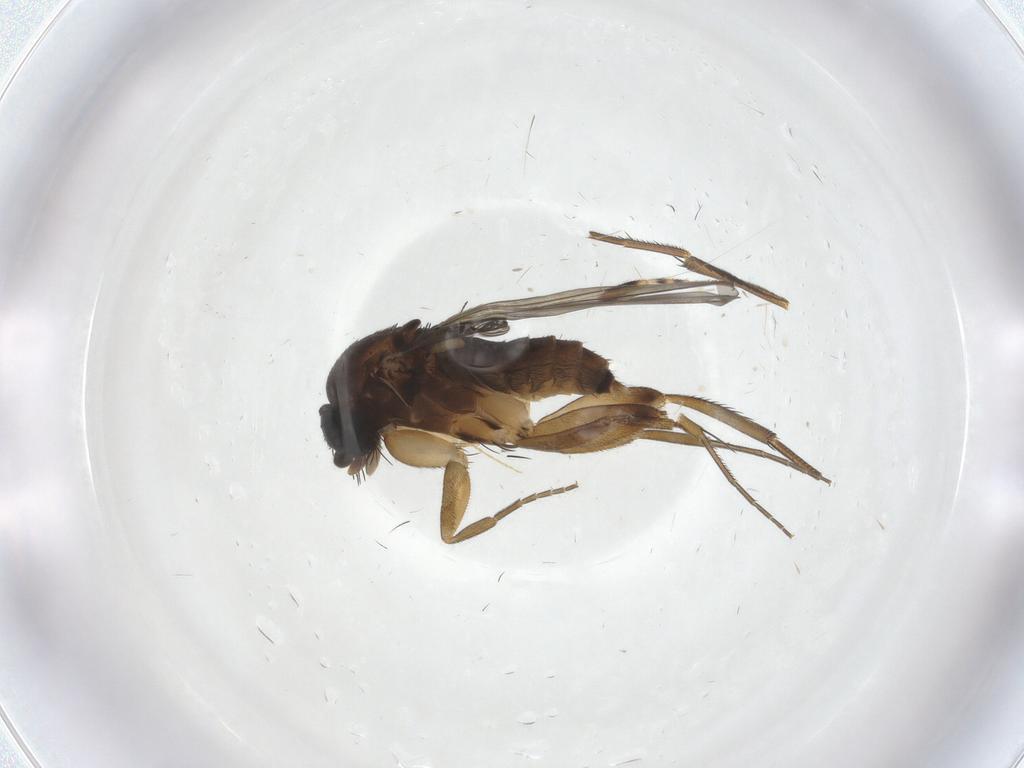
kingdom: Animalia
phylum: Arthropoda
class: Insecta
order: Diptera
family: Phoridae
